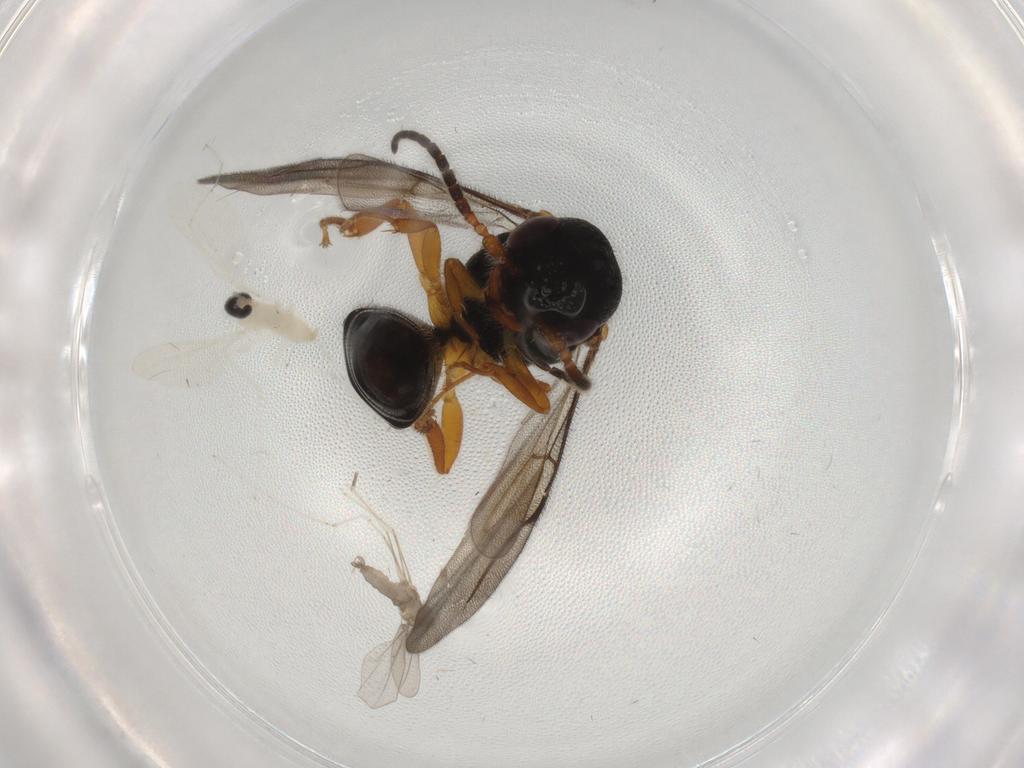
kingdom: Animalia
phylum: Arthropoda
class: Insecta
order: Hymenoptera
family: Bethylidae
